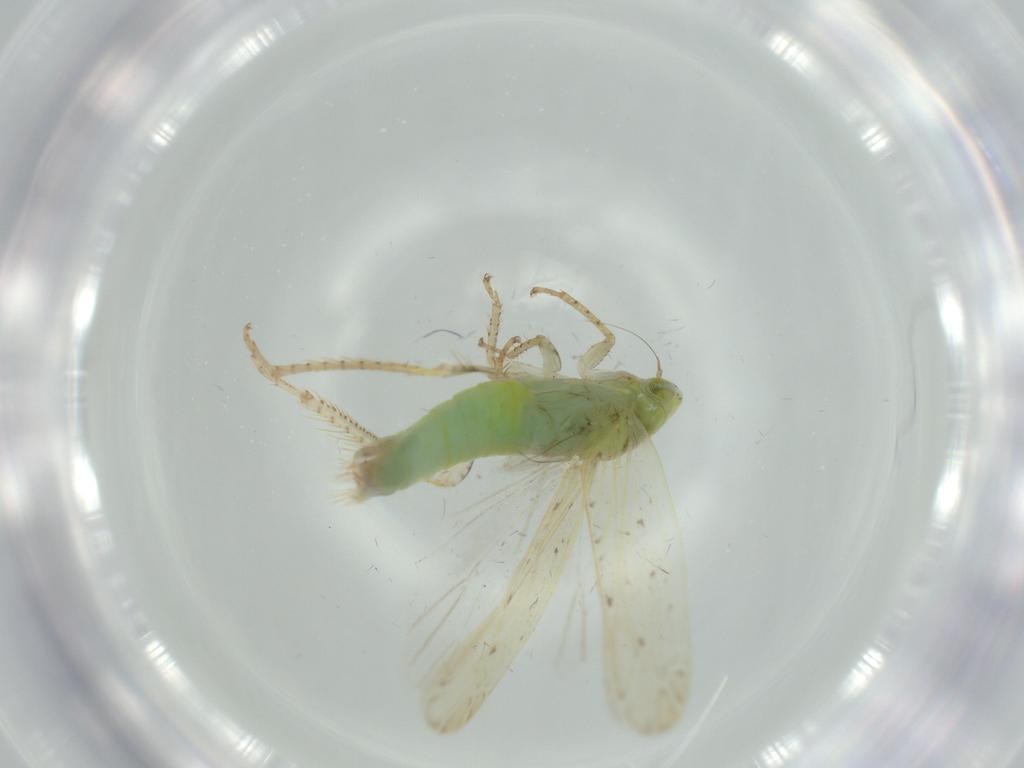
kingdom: Animalia
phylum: Arthropoda
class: Insecta
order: Hemiptera
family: Cicadellidae
